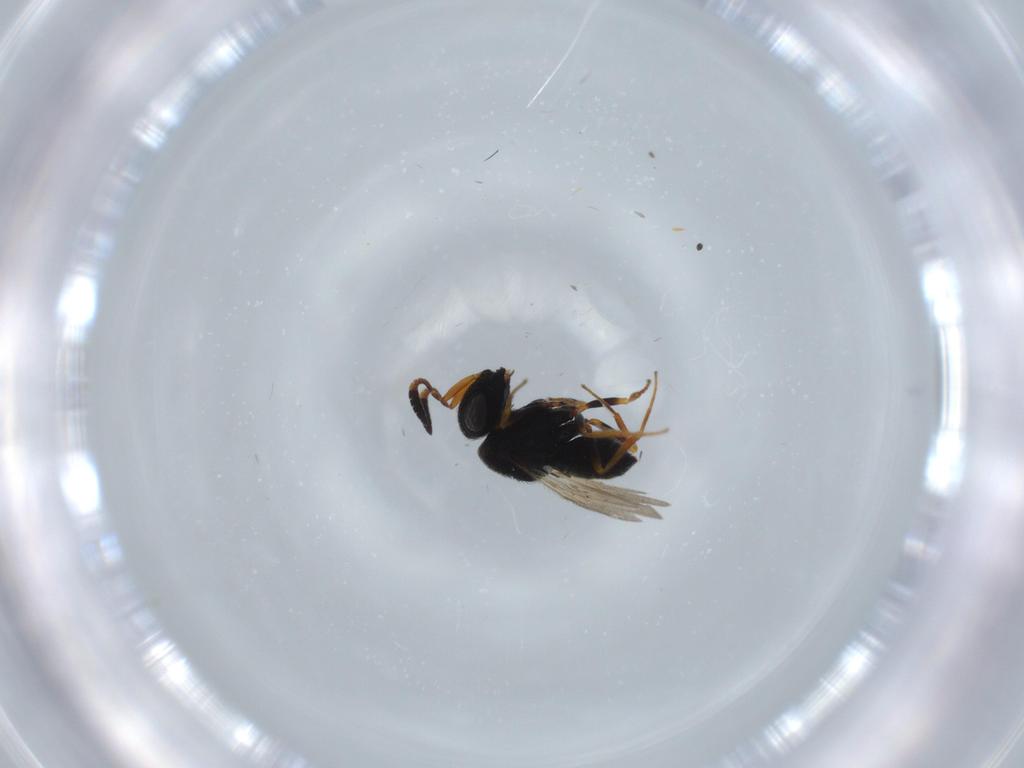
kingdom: Animalia
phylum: Arthropoda
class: Insecta
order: Hymenoptera
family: Scelionidae
